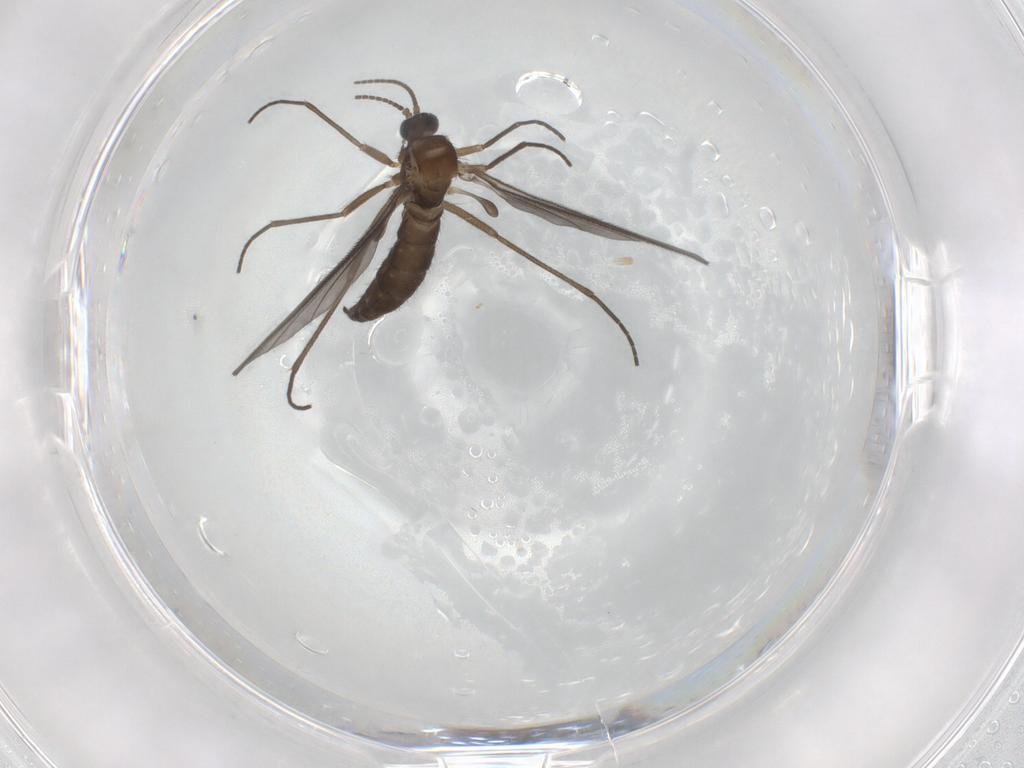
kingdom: Animalia
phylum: Arthropoda
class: Insecta
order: Diptera
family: Sciaridae
